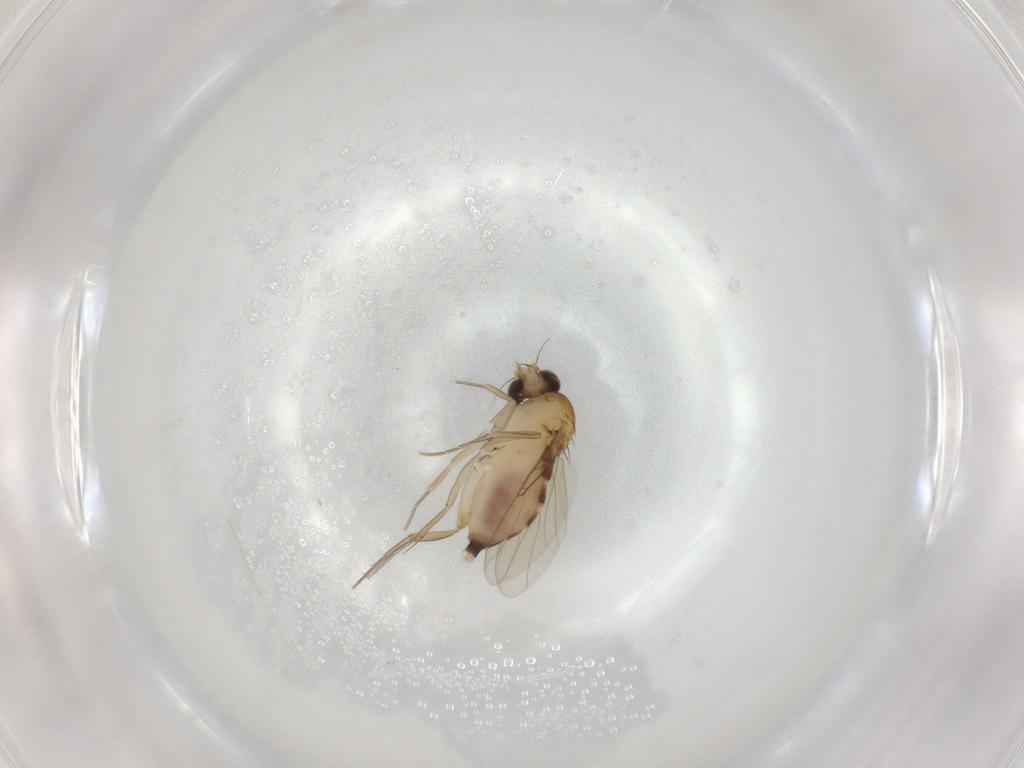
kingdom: Animalia
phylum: Arthropoda
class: Insecta
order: Diptera
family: Phoridae
